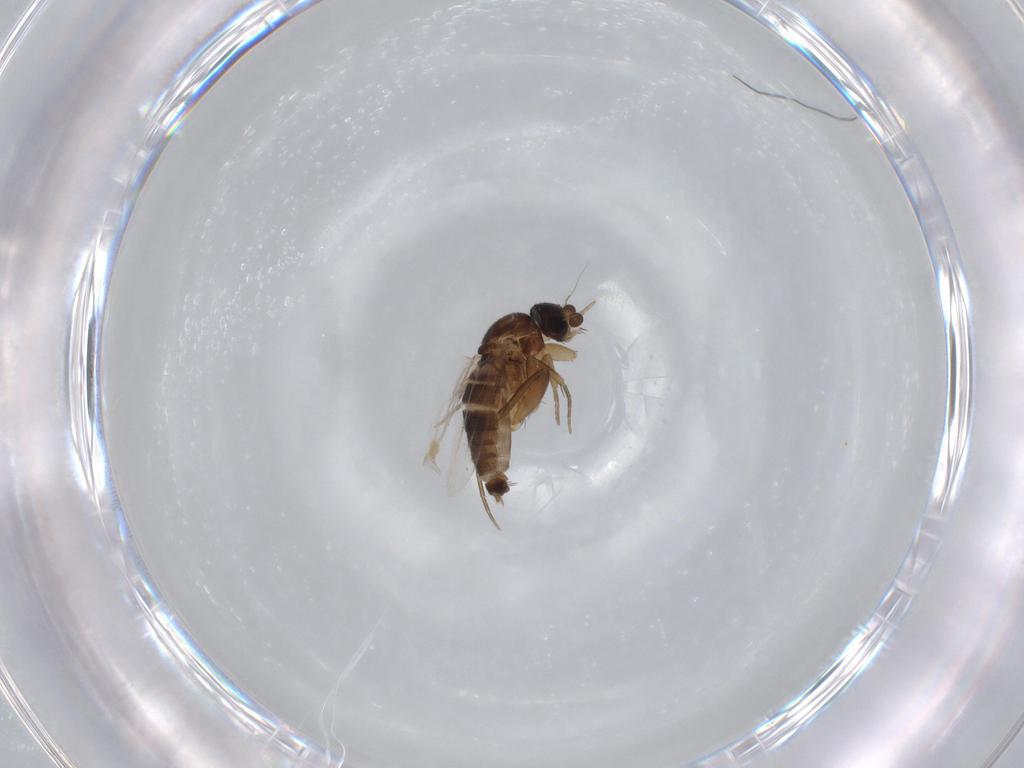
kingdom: Animalia
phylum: Arthropoda
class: Insecta
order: Diptera
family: Phoridae
